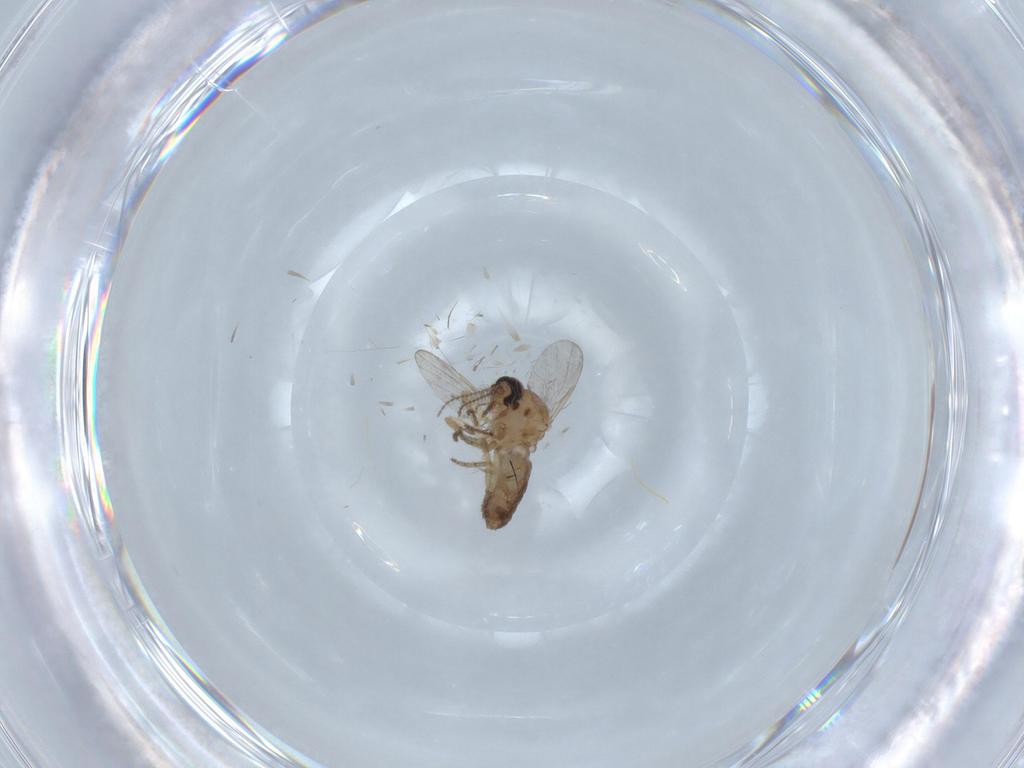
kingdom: Animalia
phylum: Arthropoda
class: Insecta
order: Diptera
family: Ceratopogonidae
